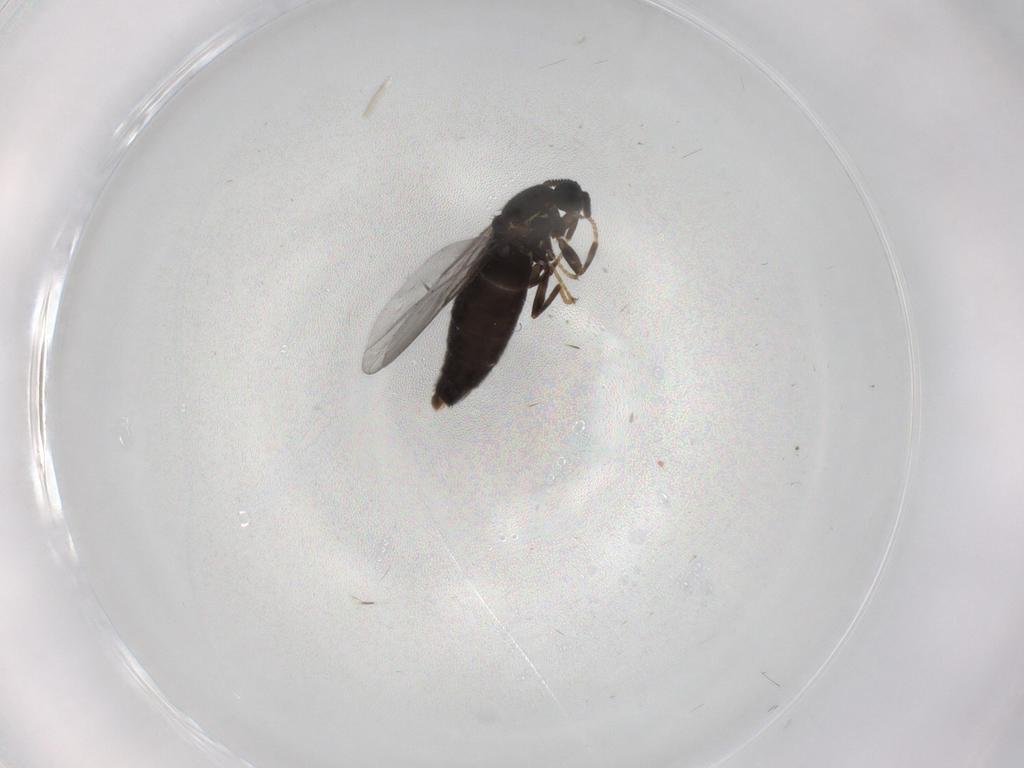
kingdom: Animalia
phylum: Arthropoda
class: Insecta
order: Diptera
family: Scatopsidae
